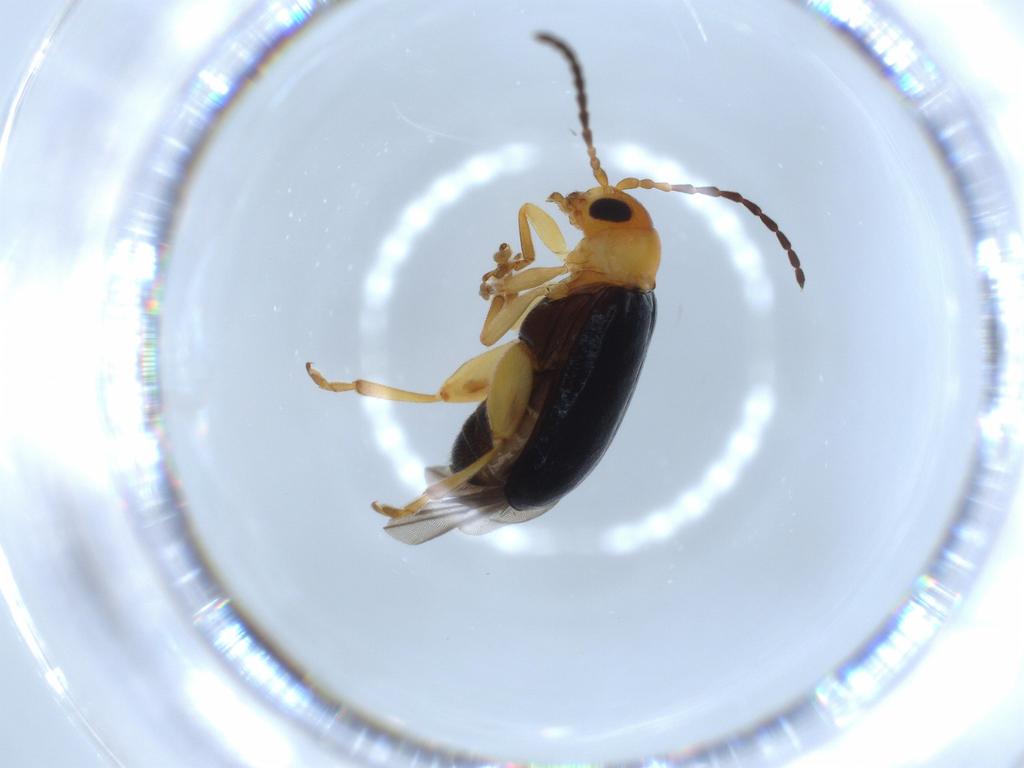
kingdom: Animalia
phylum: Arthropoda
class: Insecta
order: Coleoptera
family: Chrysomelidae
